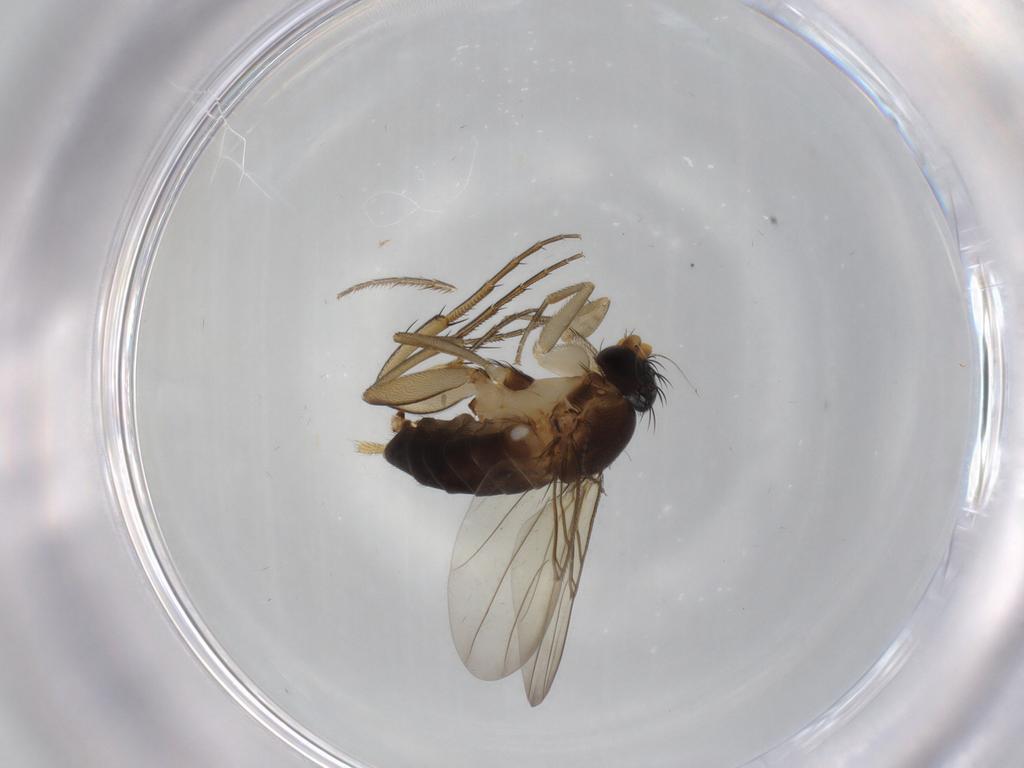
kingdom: Animalia
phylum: Arthropoda
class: Insecta
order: Diptera
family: Phoridae
